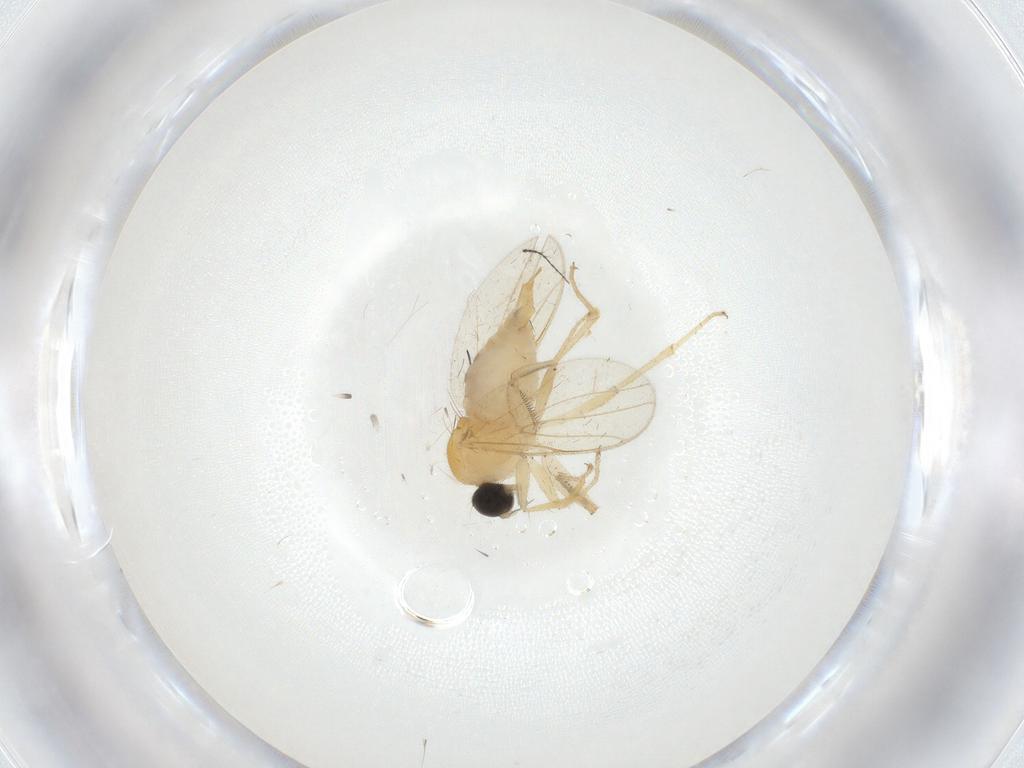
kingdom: Animalia
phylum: Arthropoda
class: Insecta
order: Diptera
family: Hybotidae
